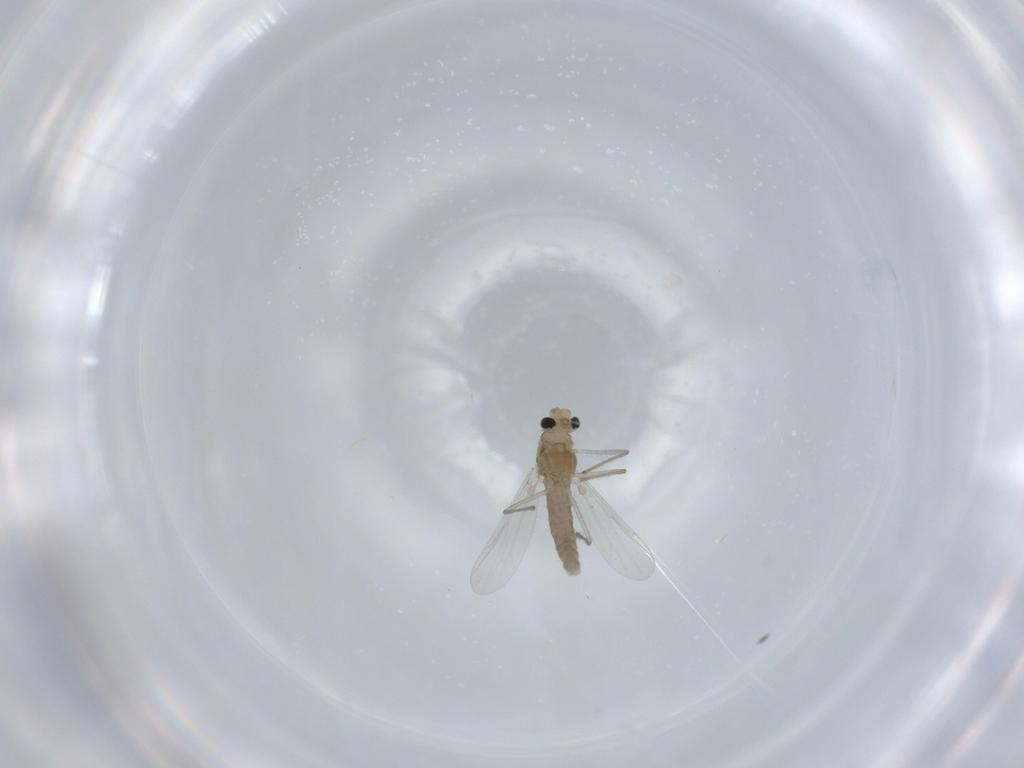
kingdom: Animalia
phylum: Arthropoda
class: Insecta
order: Diptera
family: Chironomidae
